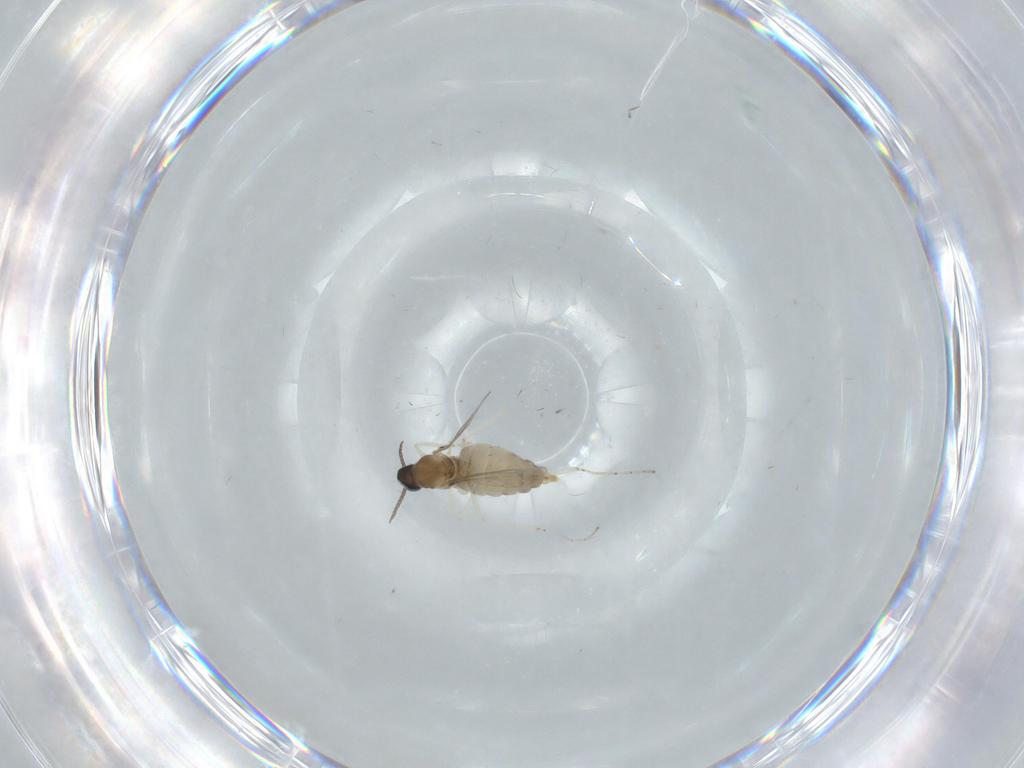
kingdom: Animalia
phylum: Arthropoda
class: Insecta
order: Diptera
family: Cecidomyiidae
